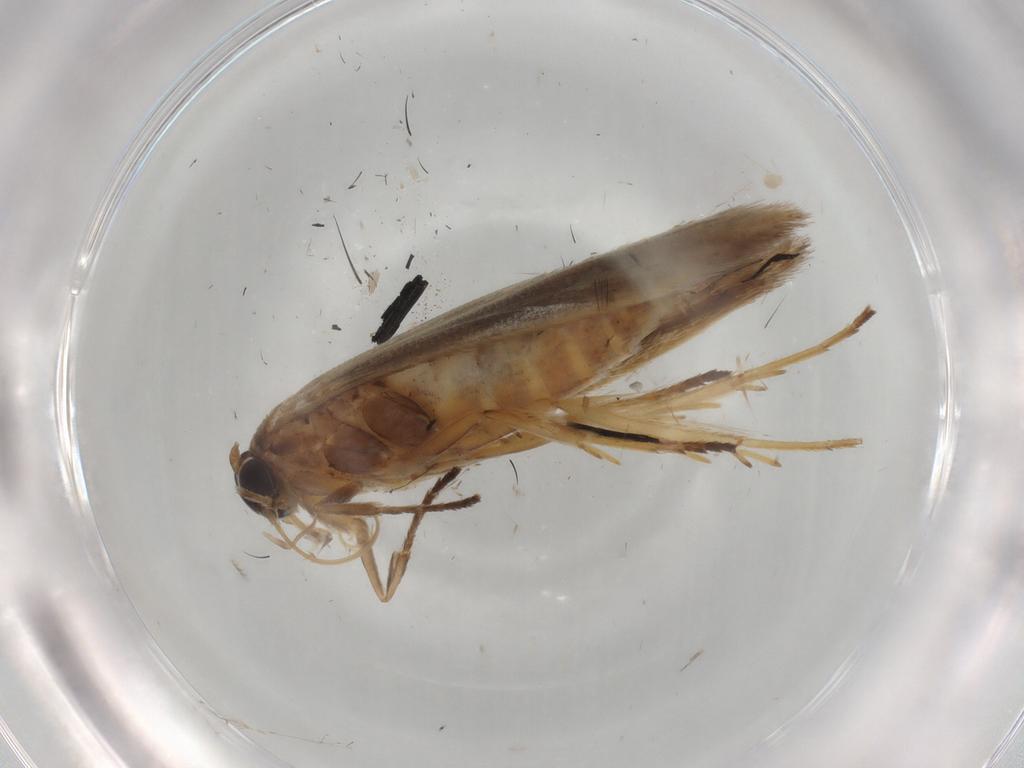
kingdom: Animalia
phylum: Arthropoda
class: Insecta
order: Lepidoptera
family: Scythrididae
